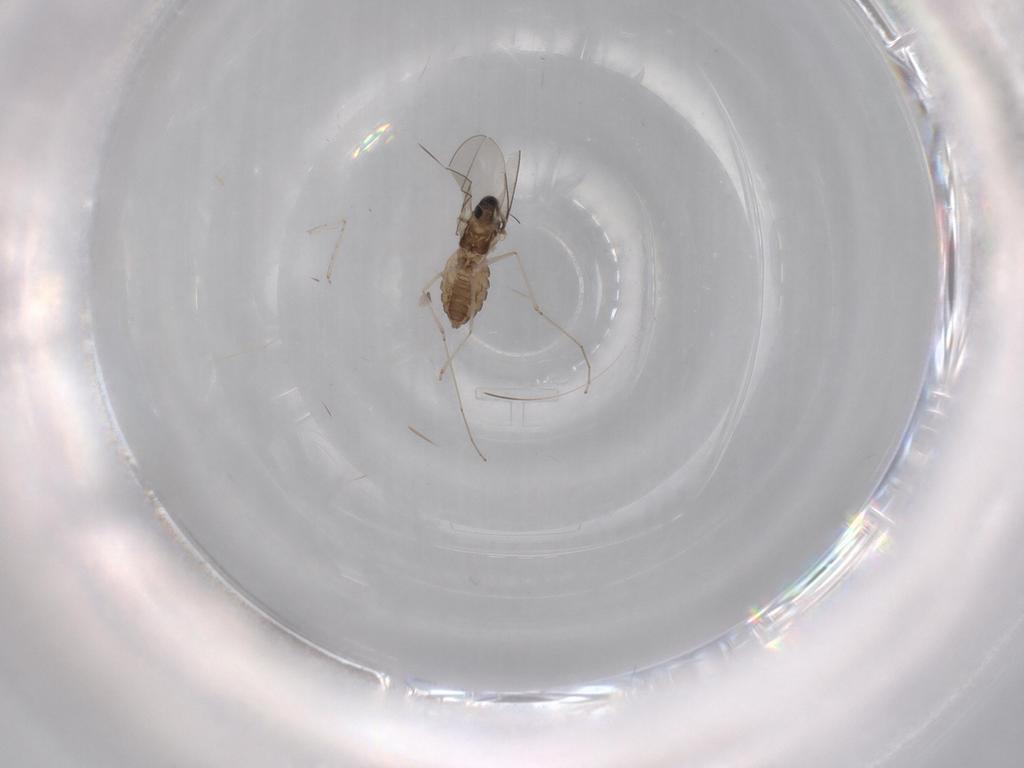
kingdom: Animalia
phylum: Arthropoda
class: Insecta
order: Diptera
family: Cecidomyiidae
